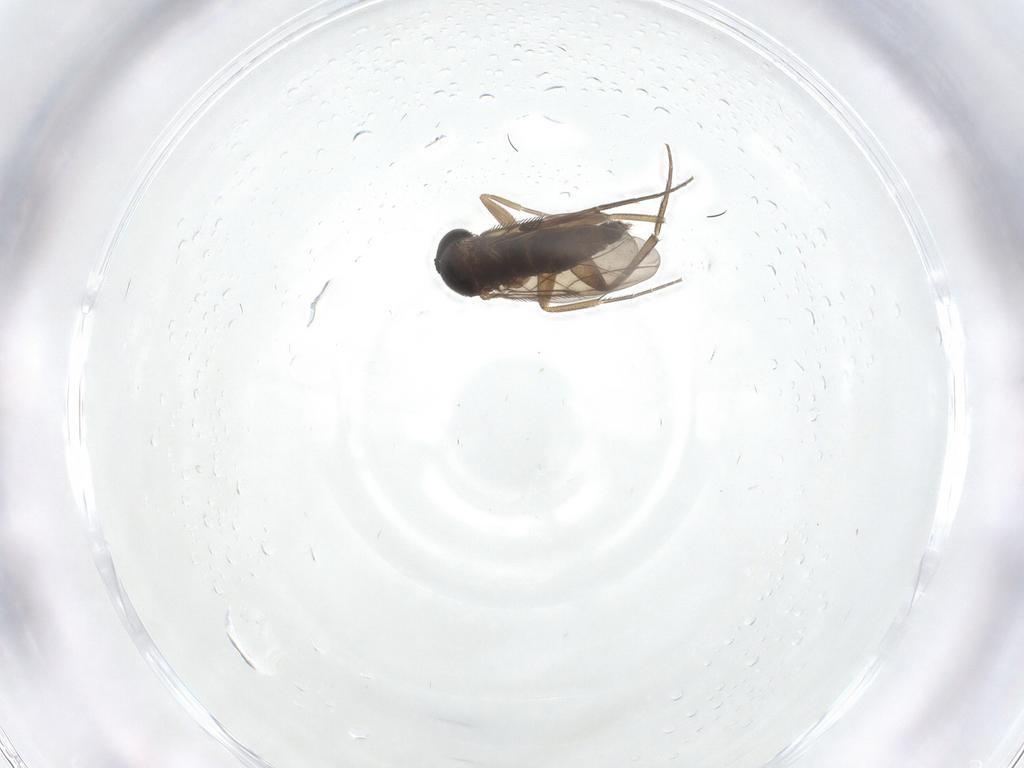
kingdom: Animalia
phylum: Arthropoda
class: Insecta
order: Diptera
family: Phoridae
